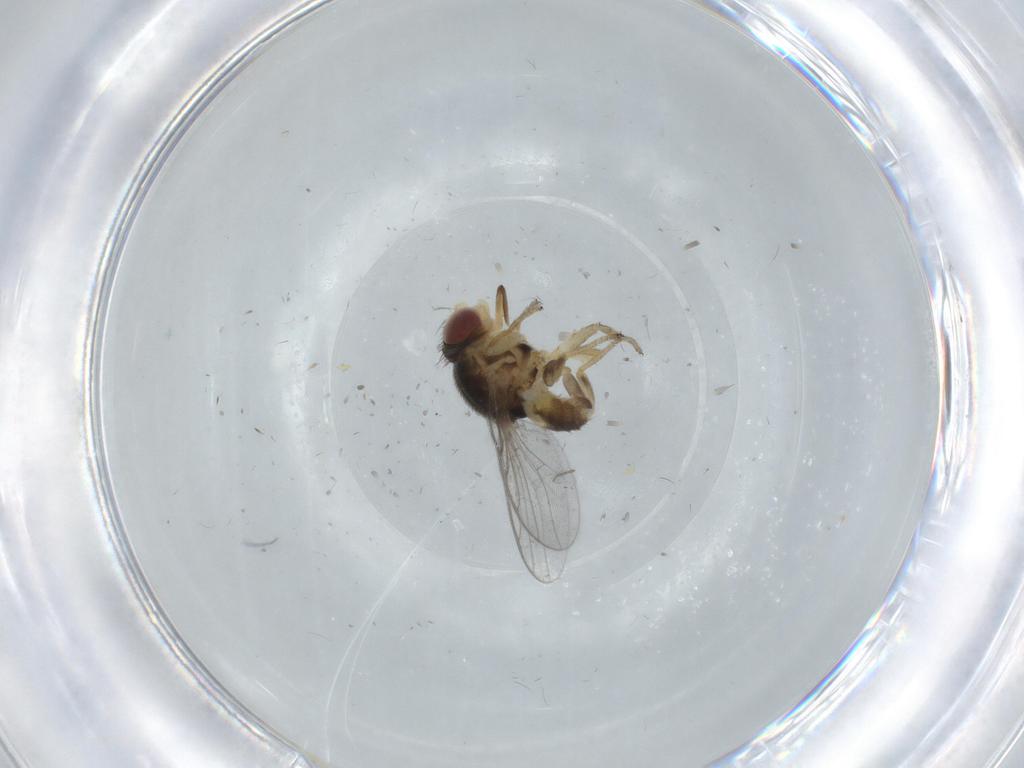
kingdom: Animalia
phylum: Arthropoda
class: Insecta
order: Diptera
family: Chloropidae
